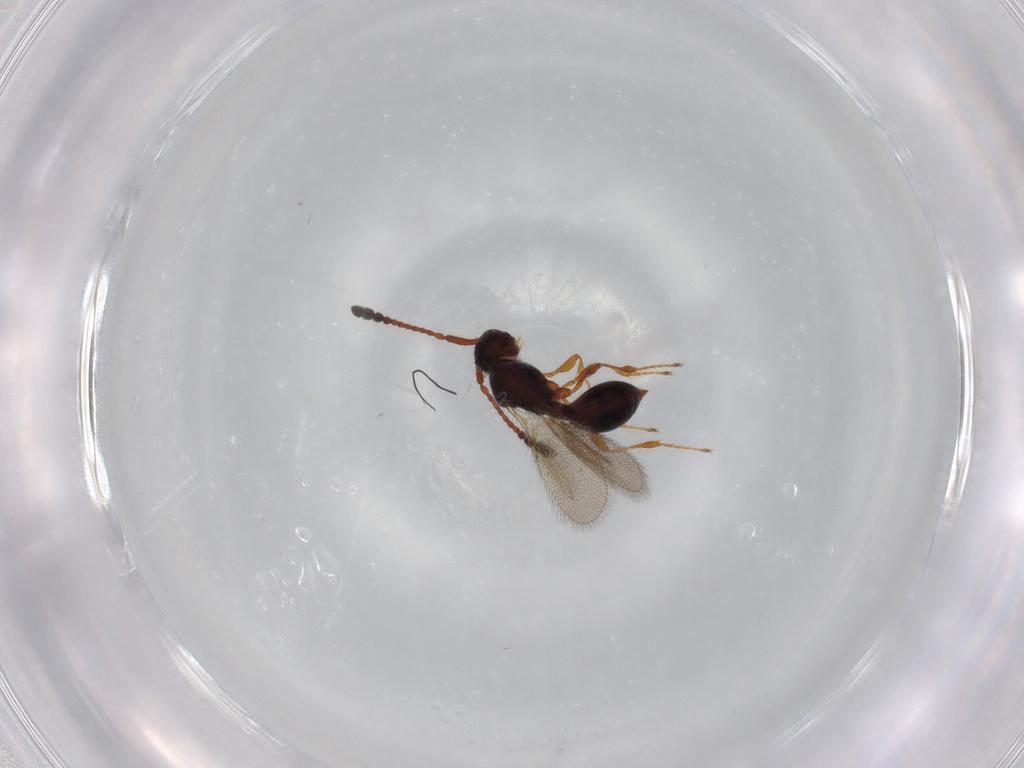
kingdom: Animalia
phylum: Arthropoda
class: Insecta
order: Hymenoptera
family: Diapriidae
